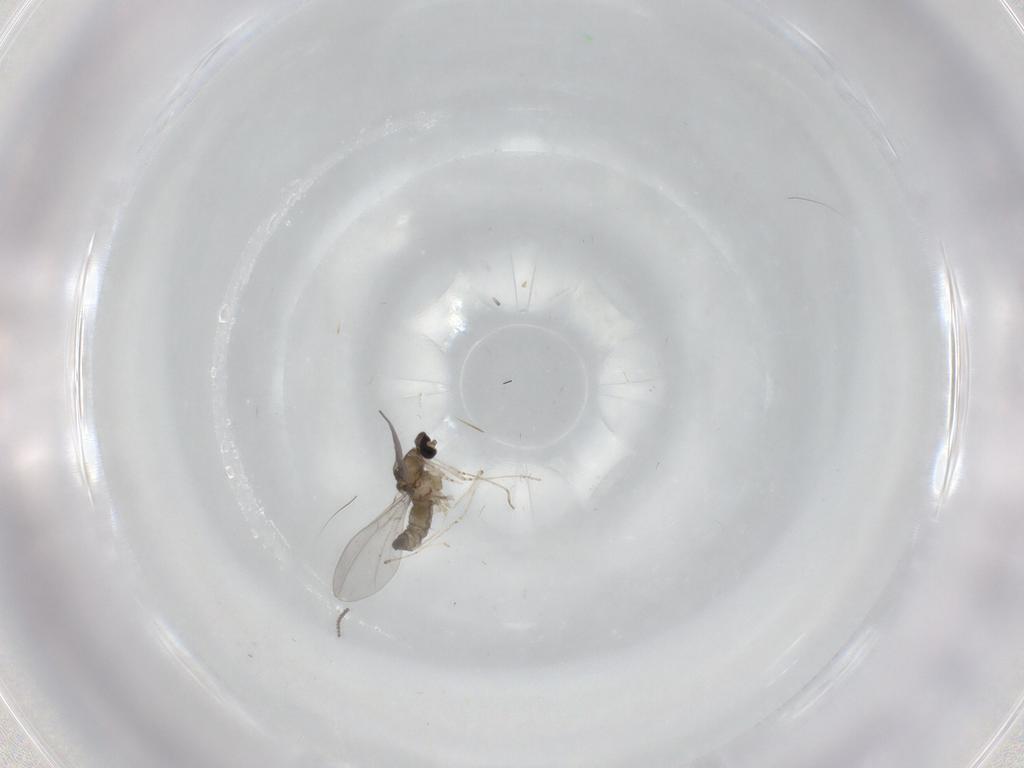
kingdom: Animalia
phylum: Arthropoda
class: Insecta
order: Diptera
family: Cecidomyiidae
